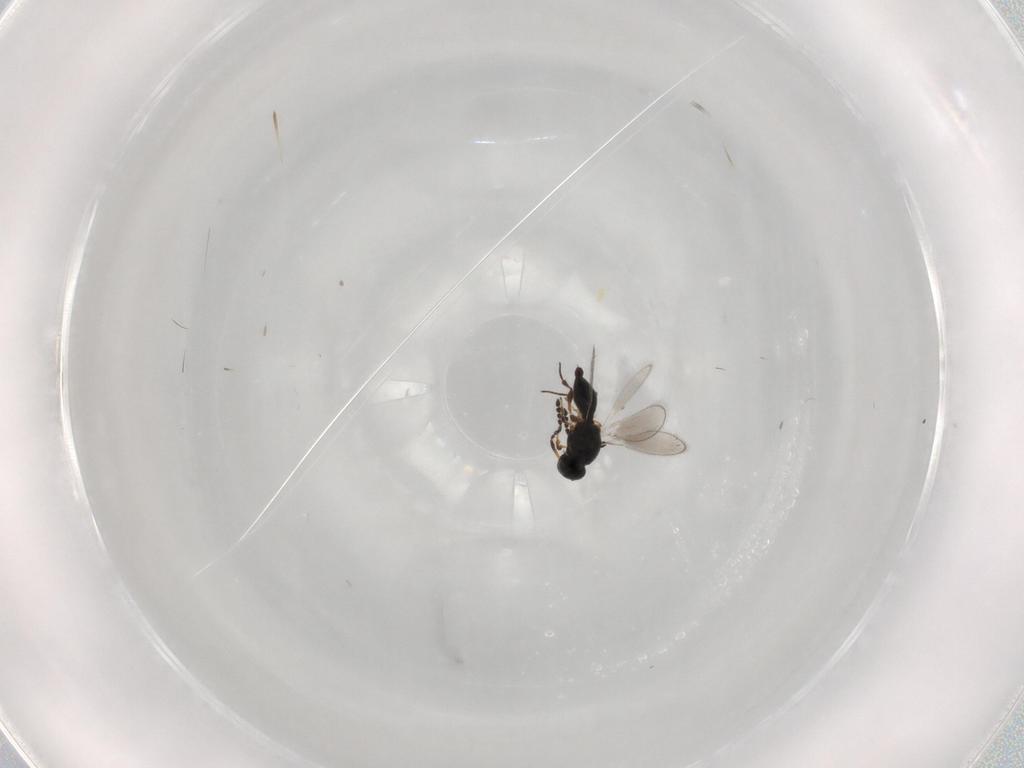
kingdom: Animalia
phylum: Arthropoda
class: Insecta
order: Hymenoptera
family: Platygastridae
